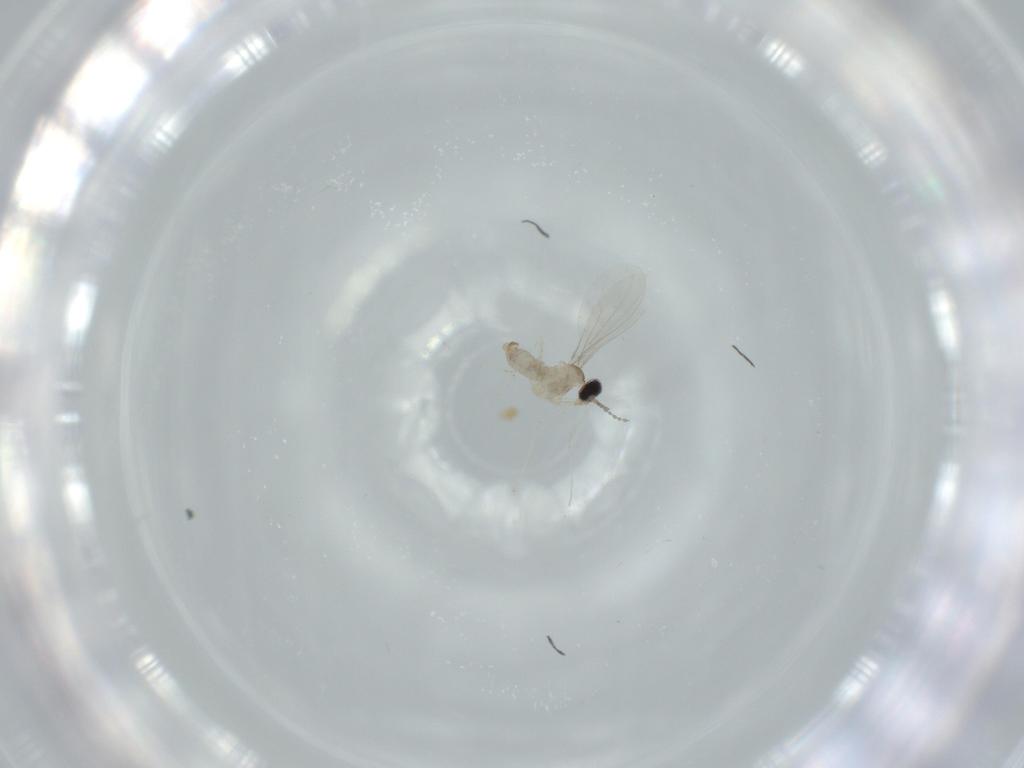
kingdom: Animalia
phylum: Arthropoda
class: Insecta
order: Diptera
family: Cecidomyiidae
